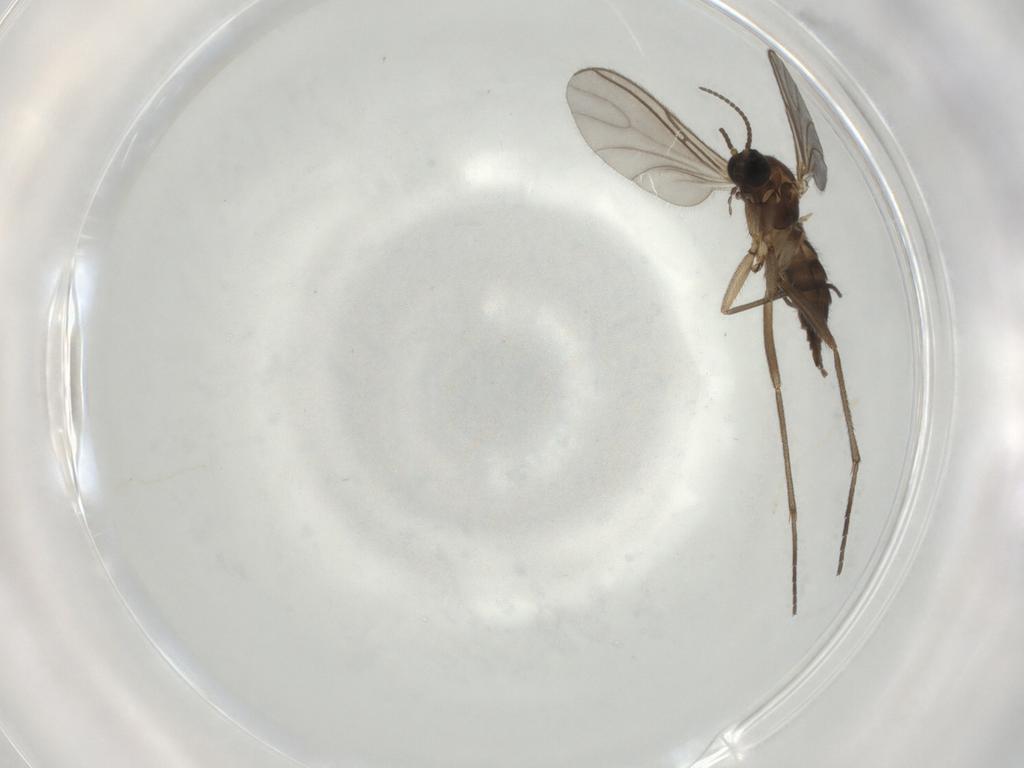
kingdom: Animalia
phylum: Arthropoda
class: Insecta
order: Diptera
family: Sciaridae
